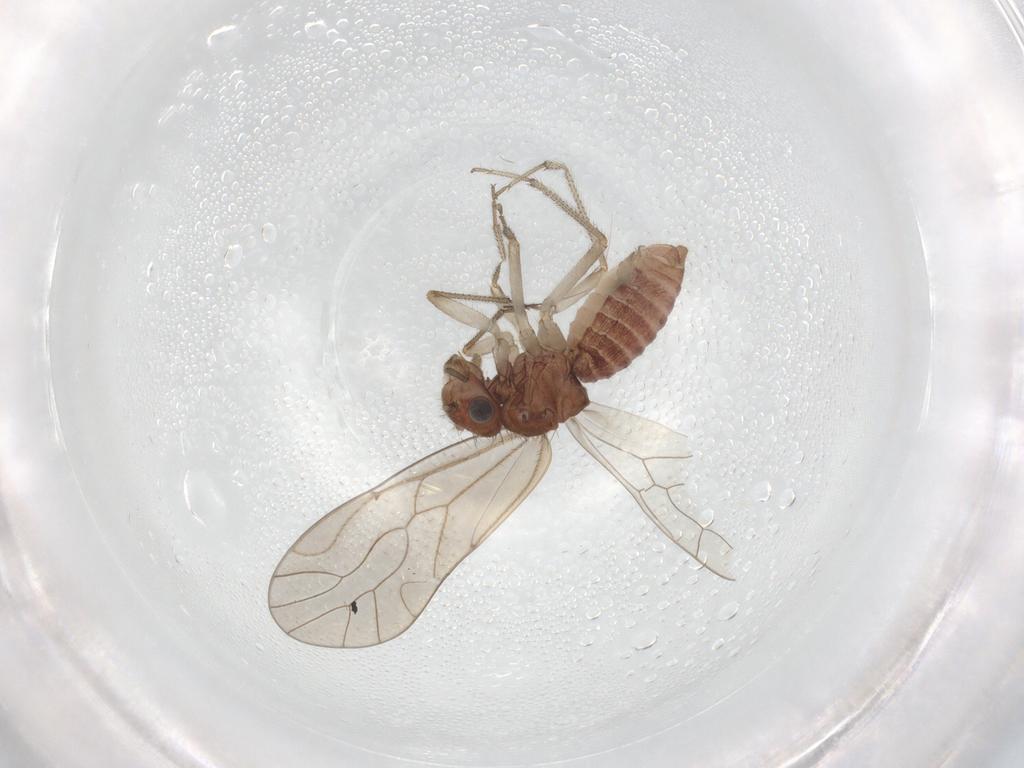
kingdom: Animalia
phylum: Arthropoda
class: Insecta
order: Psocodea
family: Caeciliusidae
